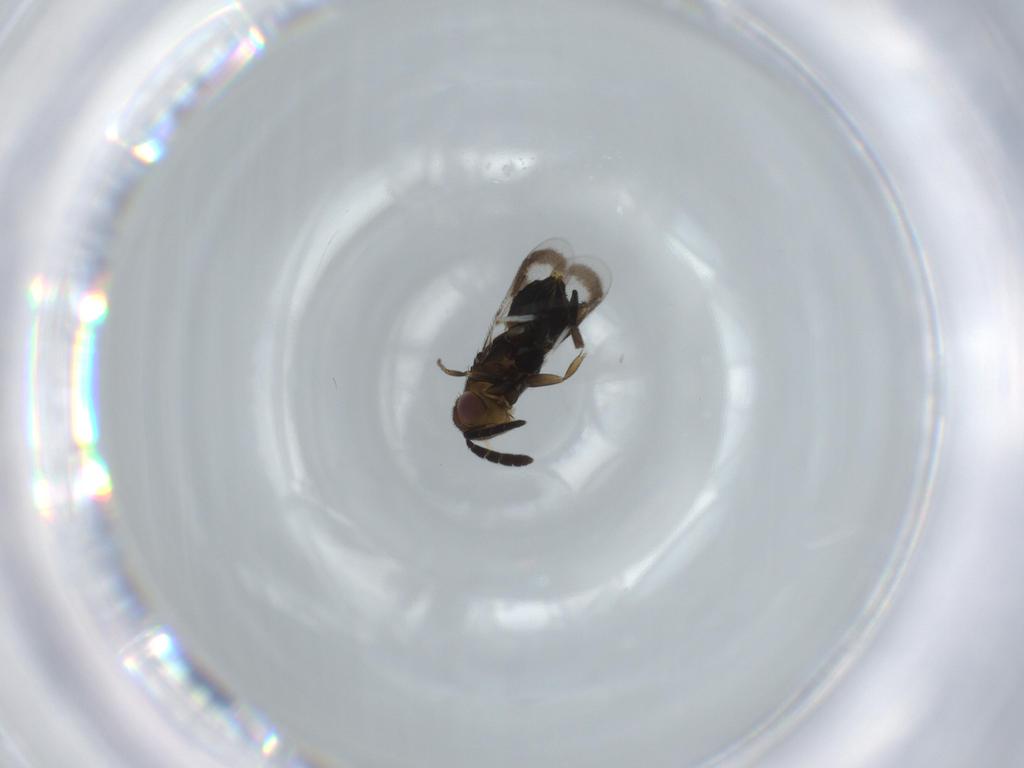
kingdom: Animalia
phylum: Arthropoda
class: Insecta
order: Hymenoptera
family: Aphelinidae
